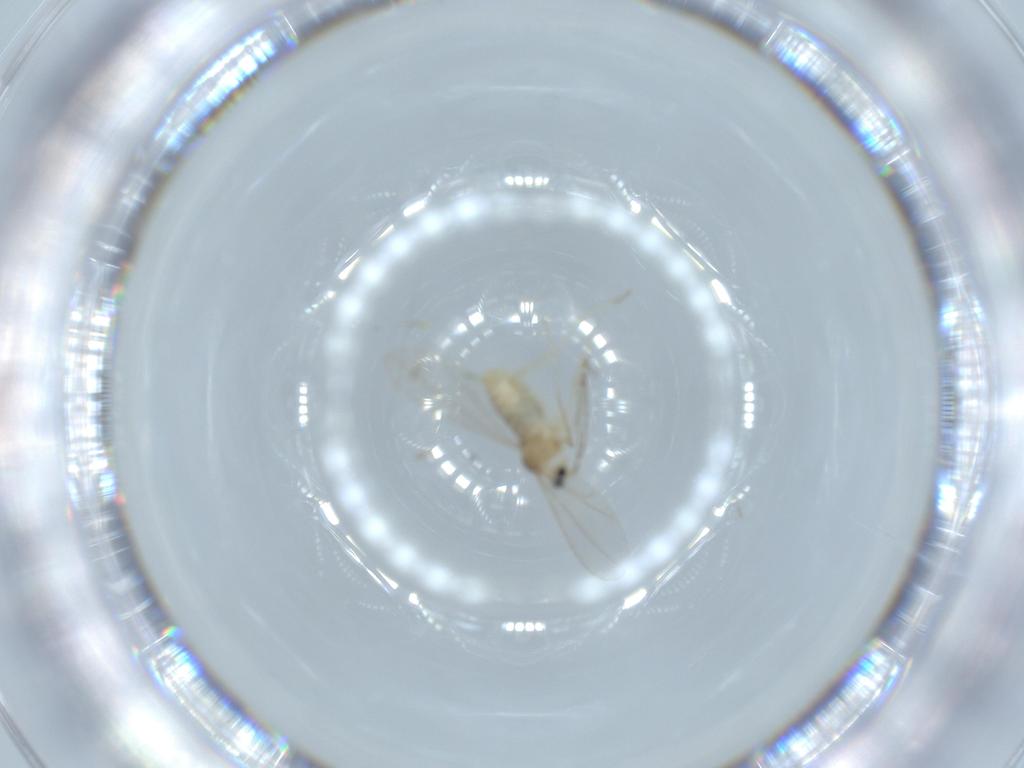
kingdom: Animalia
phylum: Arthropoda
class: Insecta
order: Diptera
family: Cecidomyiidae
